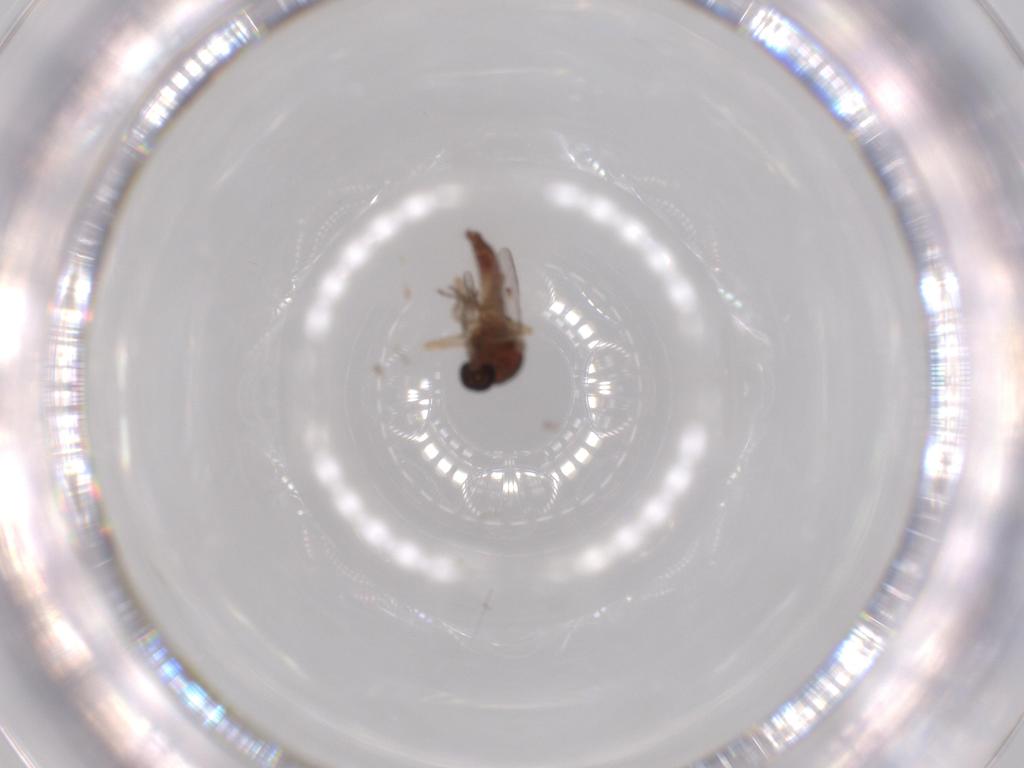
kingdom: Animalia
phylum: Arthropoda
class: Insecta
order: Diptera
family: Ceratopogonidae
